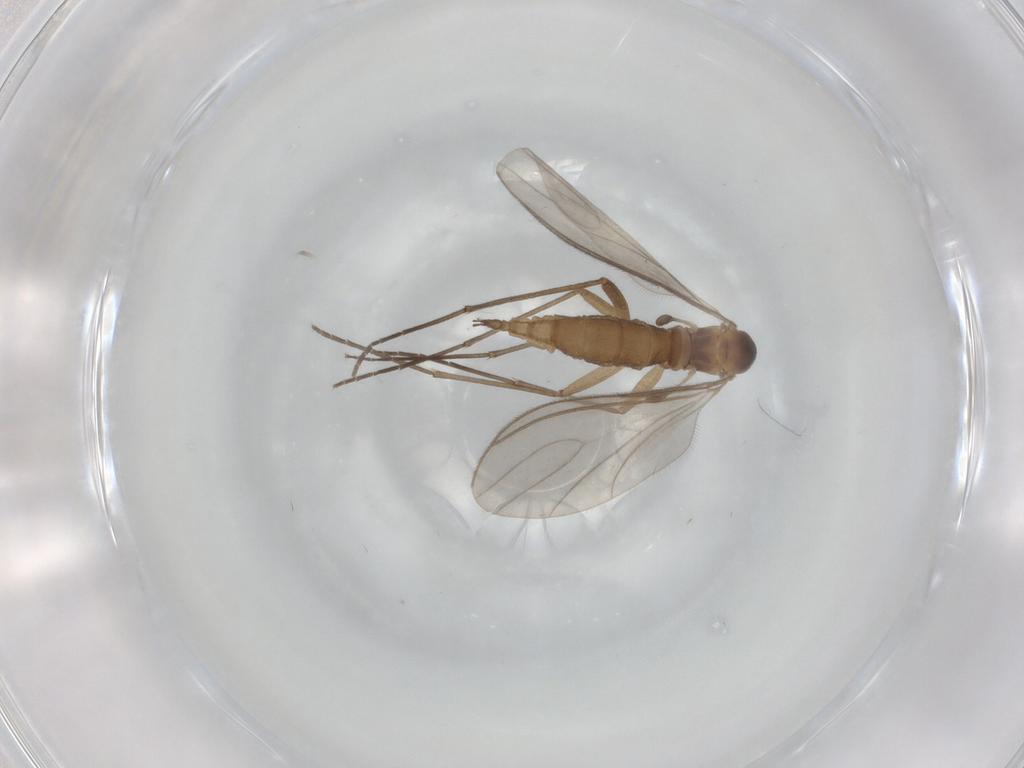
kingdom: Animalia
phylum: Arthropoda
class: Insecta
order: Diptera
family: Sciaridae
